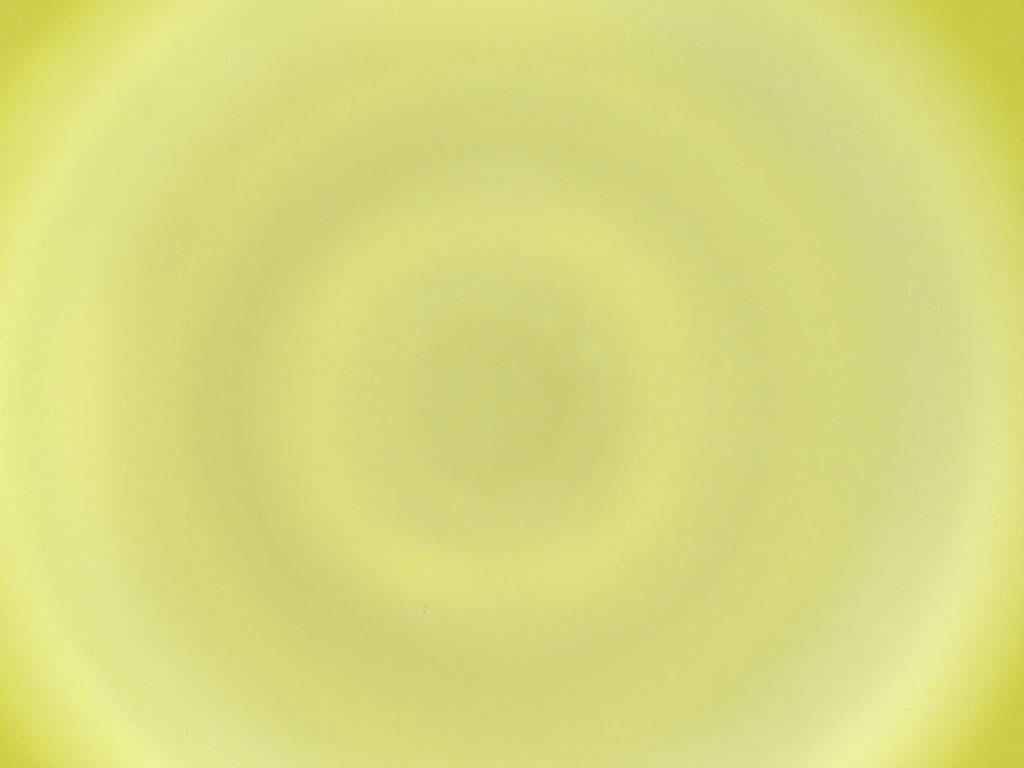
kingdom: Animalia
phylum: Arthropoda
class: Insecta
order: Diptera
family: Cecidomyiidae
